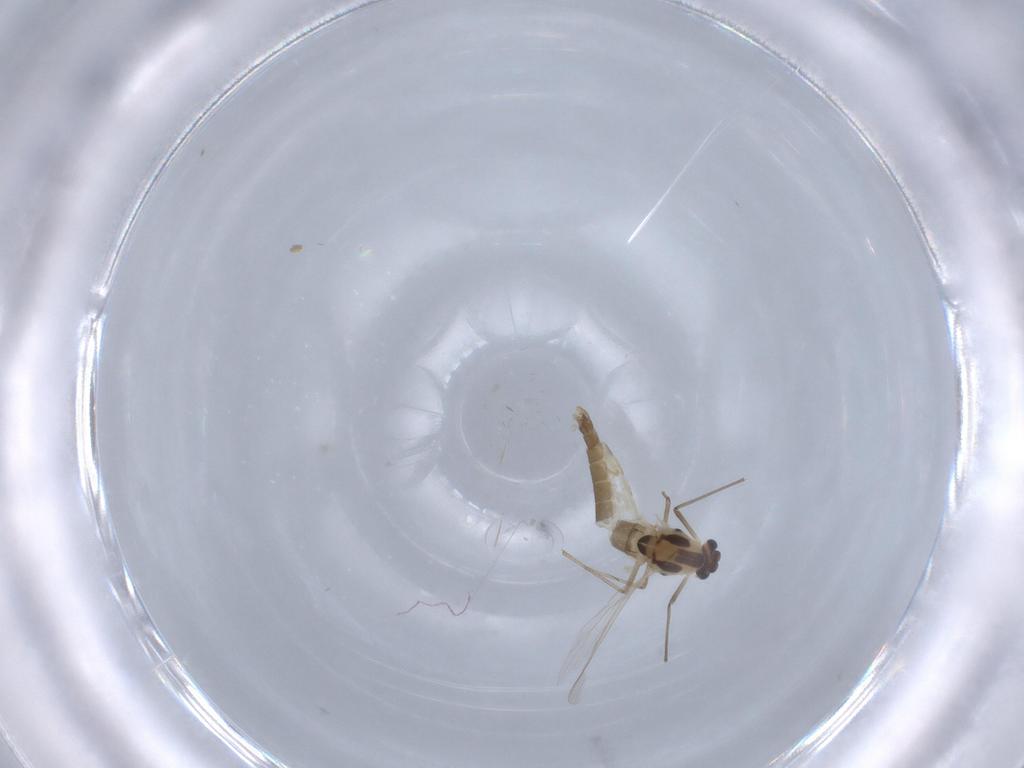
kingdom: Animalia
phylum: Arthropoda
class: Insecta
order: Diptera
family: Chironomidae
